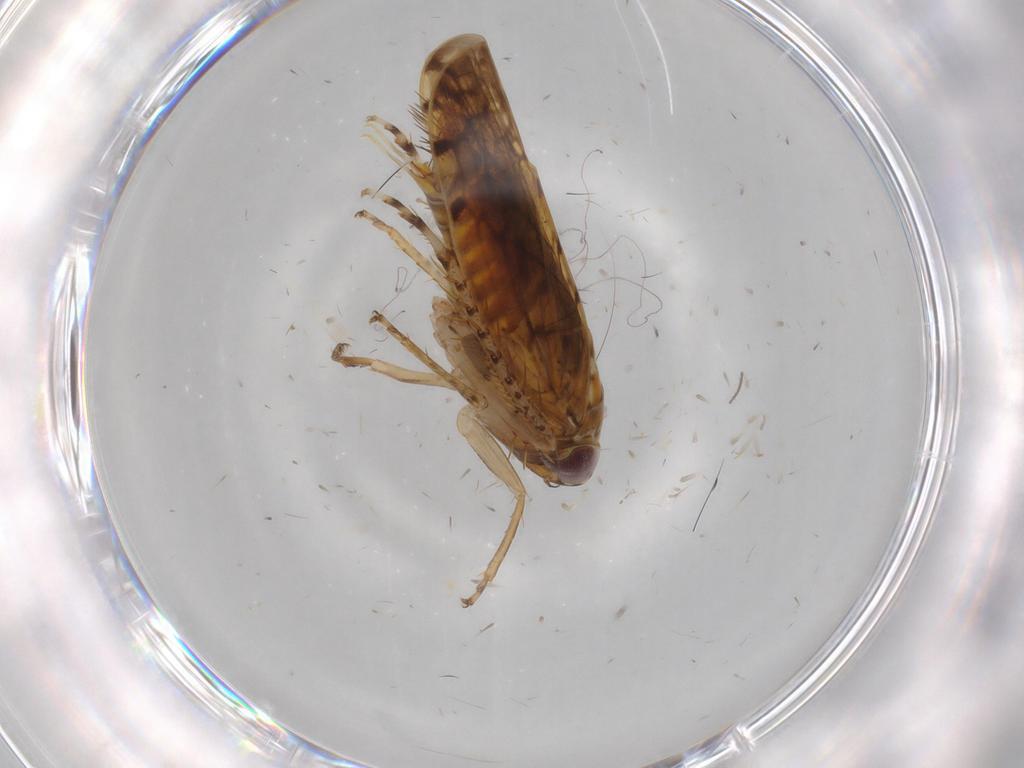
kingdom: Animalia
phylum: Arthropoda
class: Insecta
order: Hemiptera
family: Cicadellidae
